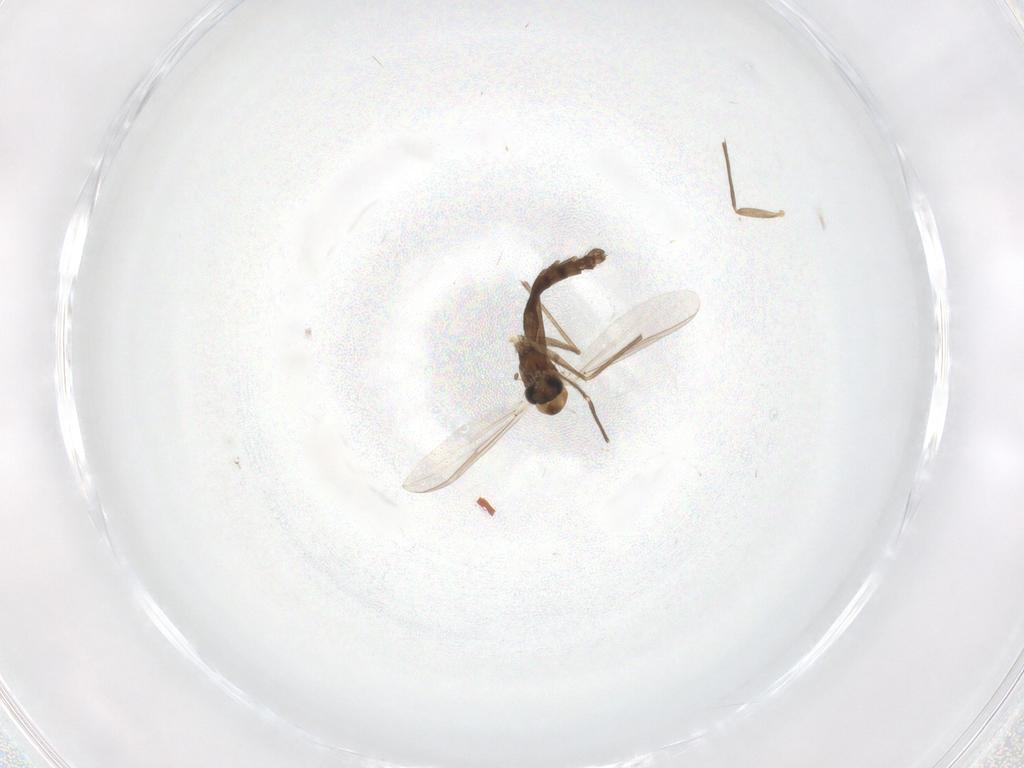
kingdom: Animalia
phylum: Arthropoda
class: Insecta
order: Diptera
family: Chironomidae
